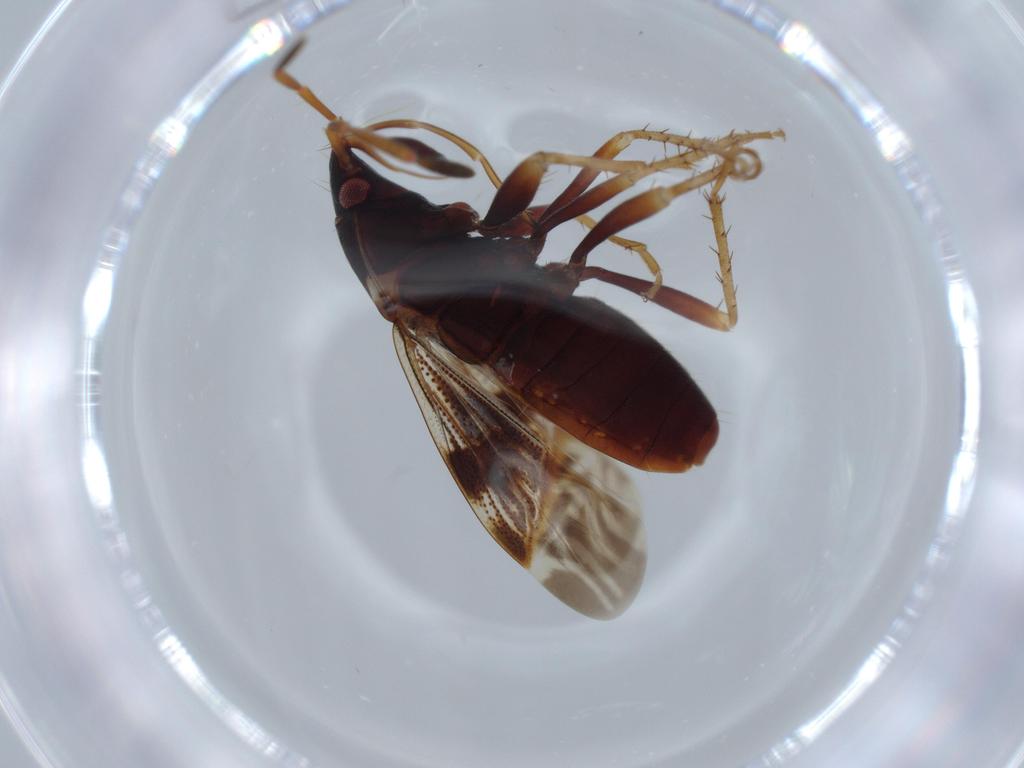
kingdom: Animalia
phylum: Arthropoda
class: Insecta
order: Hemiptera
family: Rhyparochromidae
